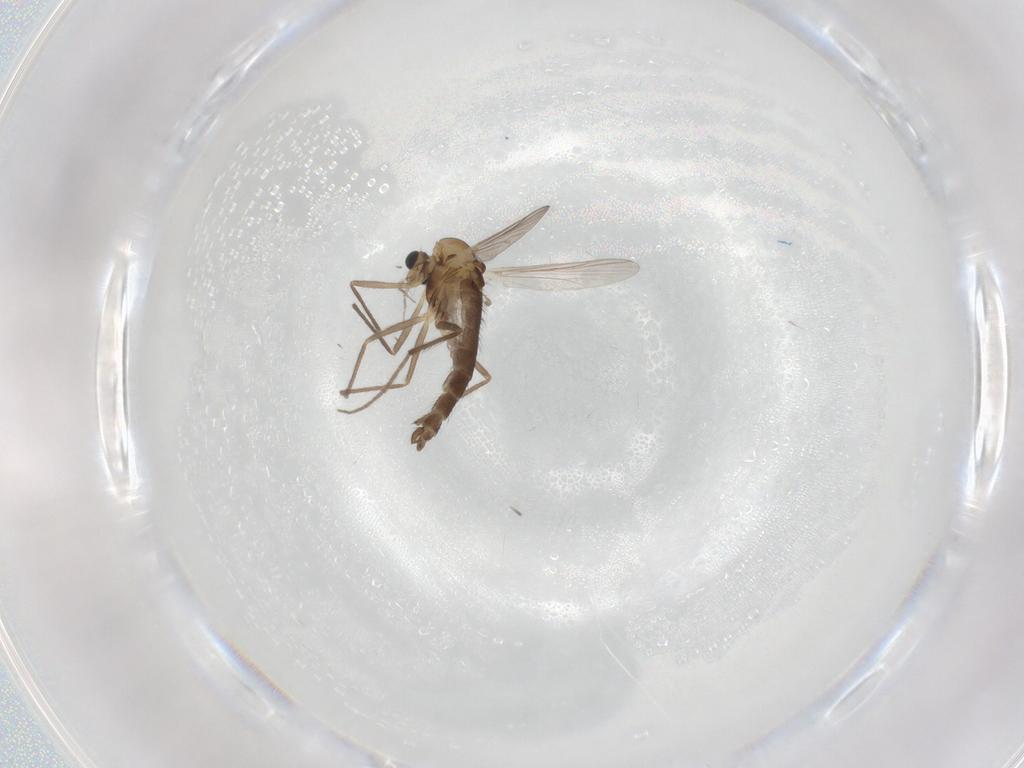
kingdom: Animalia
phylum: Arthropoda
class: Insecta
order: Diptera
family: Chironomidae
